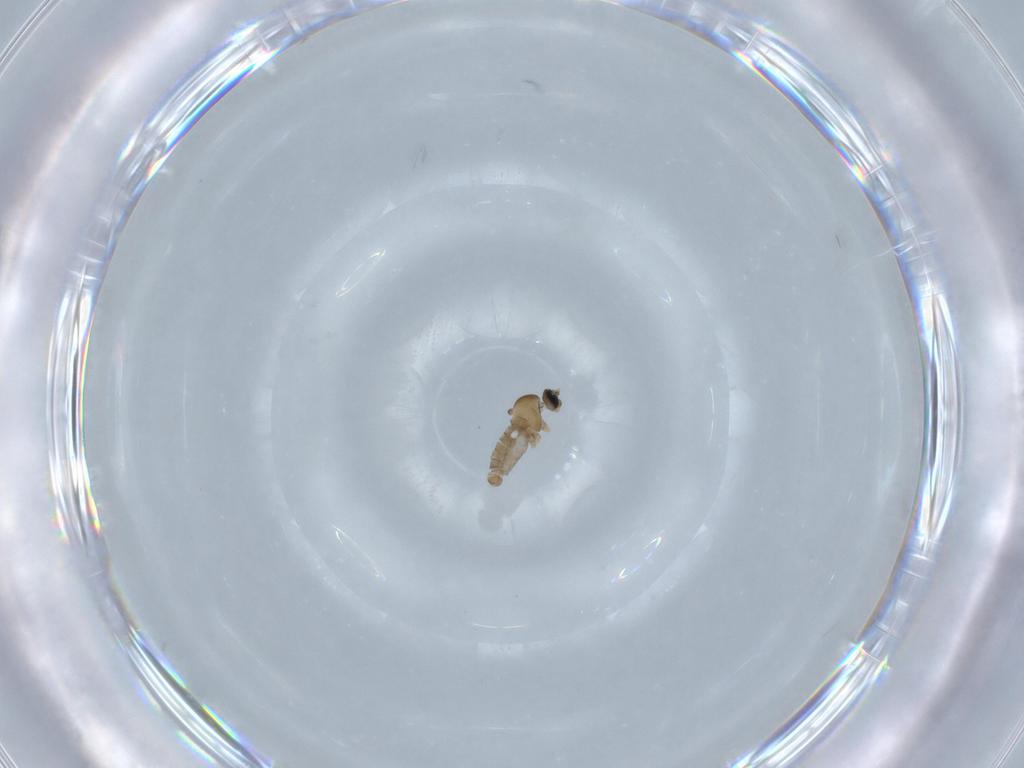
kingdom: Animalia
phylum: Arthropoda
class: Insecta
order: Diptera
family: Cecidomyiidae
